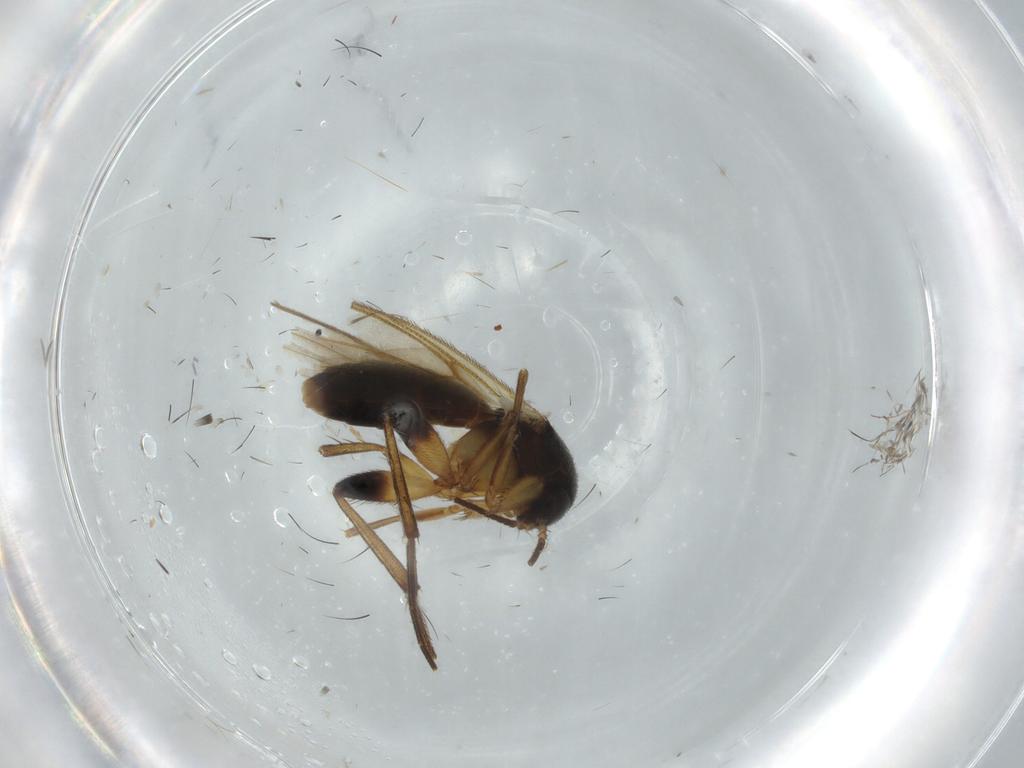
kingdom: Animalia
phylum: Arthropoda
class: Insecta
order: Diptera
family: Mycetophilidae
